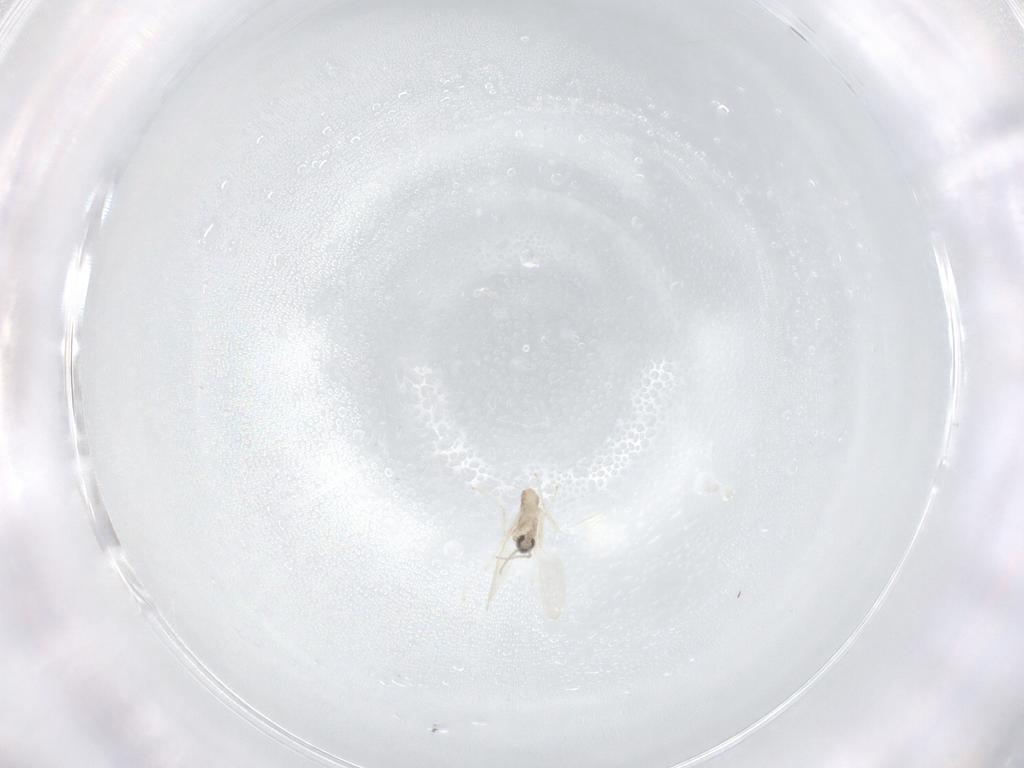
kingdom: Animalia
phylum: Arthropoda
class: Insecta
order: Diptera
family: Cecidomyiidae
